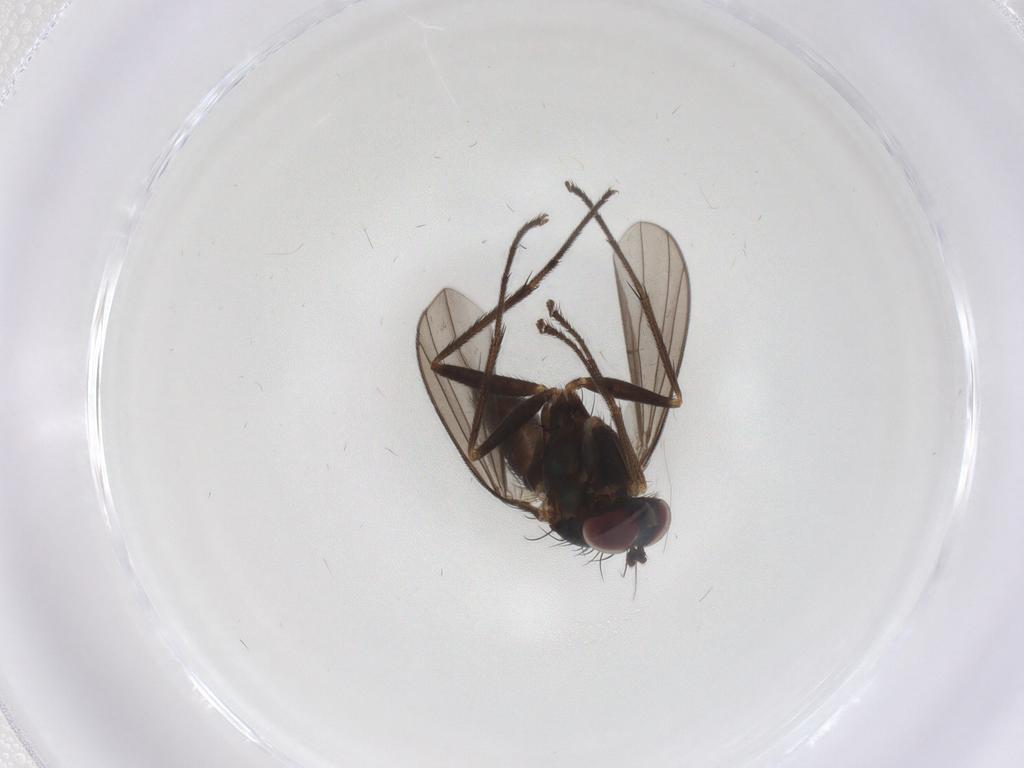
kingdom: Animalia
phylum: Arthropoda
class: Insecta
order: Diptera
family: Dolichopodidae
